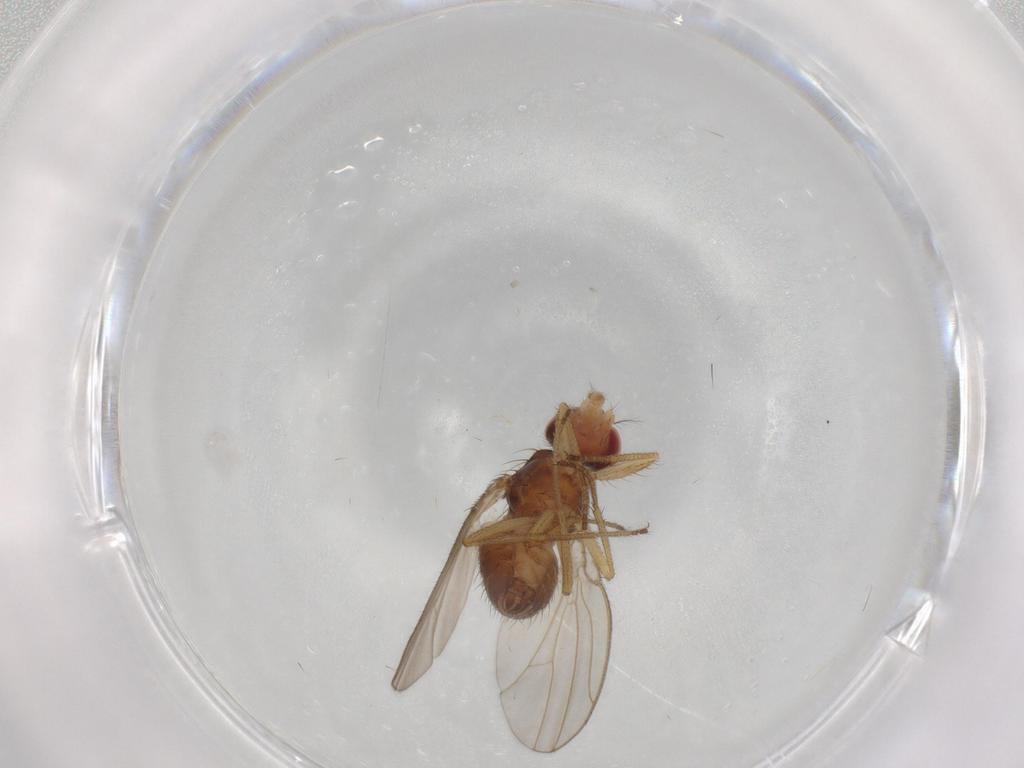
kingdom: Animalia
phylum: Arthropoda
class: Insecta
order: Diptera
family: Drosophilidae
